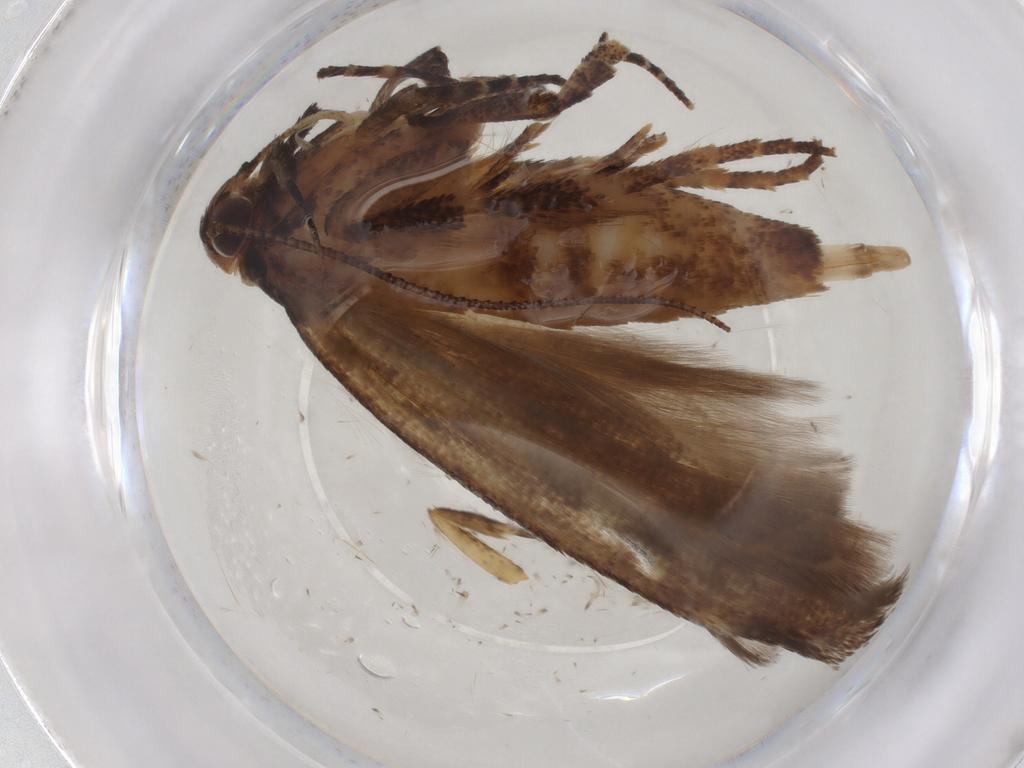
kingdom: Animalia
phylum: Arthropoda
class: Insecta
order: Lepidoptera
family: Gelechiidae
